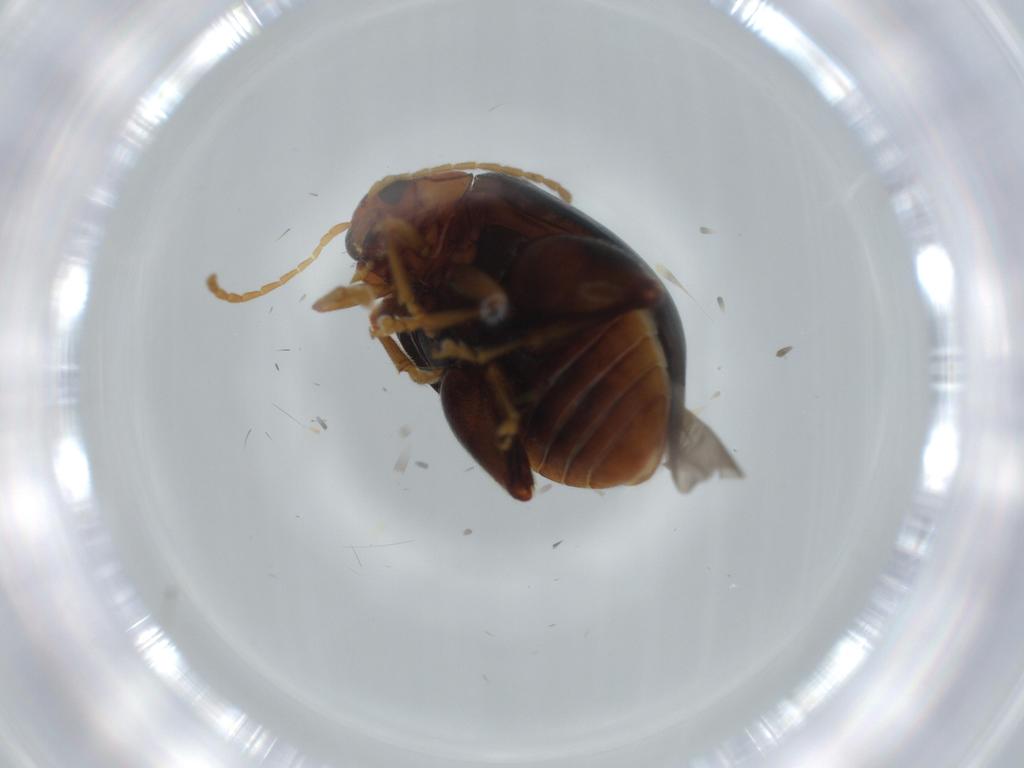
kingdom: Animalia
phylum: Arthropoda
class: Insecta
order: Coleoptera
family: Chrysomelidae
